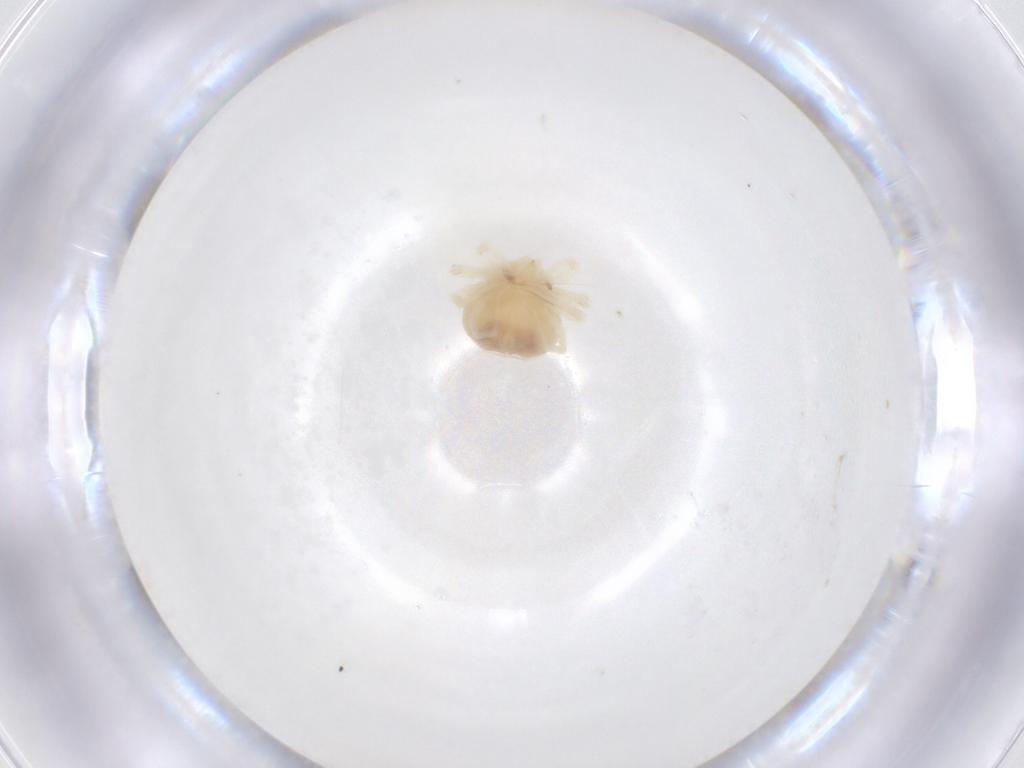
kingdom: Animalia
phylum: Arthropoda
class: Arachnida
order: Trombidiformes
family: Anystidae
